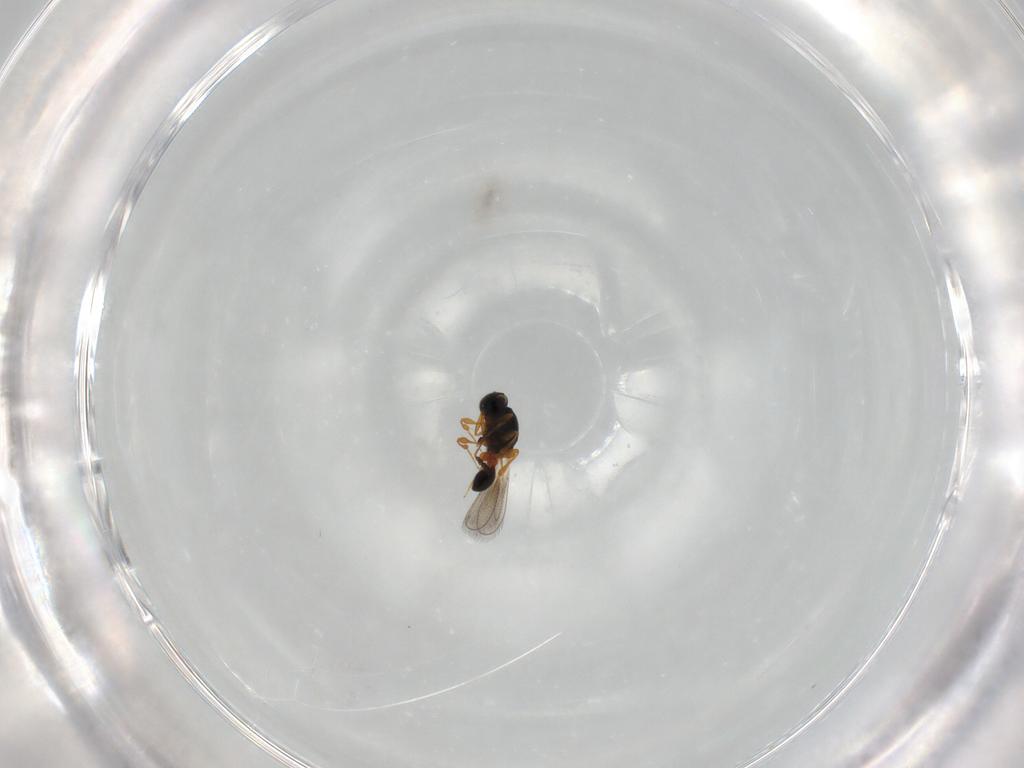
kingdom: Animalia
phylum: Arthropoda
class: Insecta
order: Hymenoptera
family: Platygastridae
